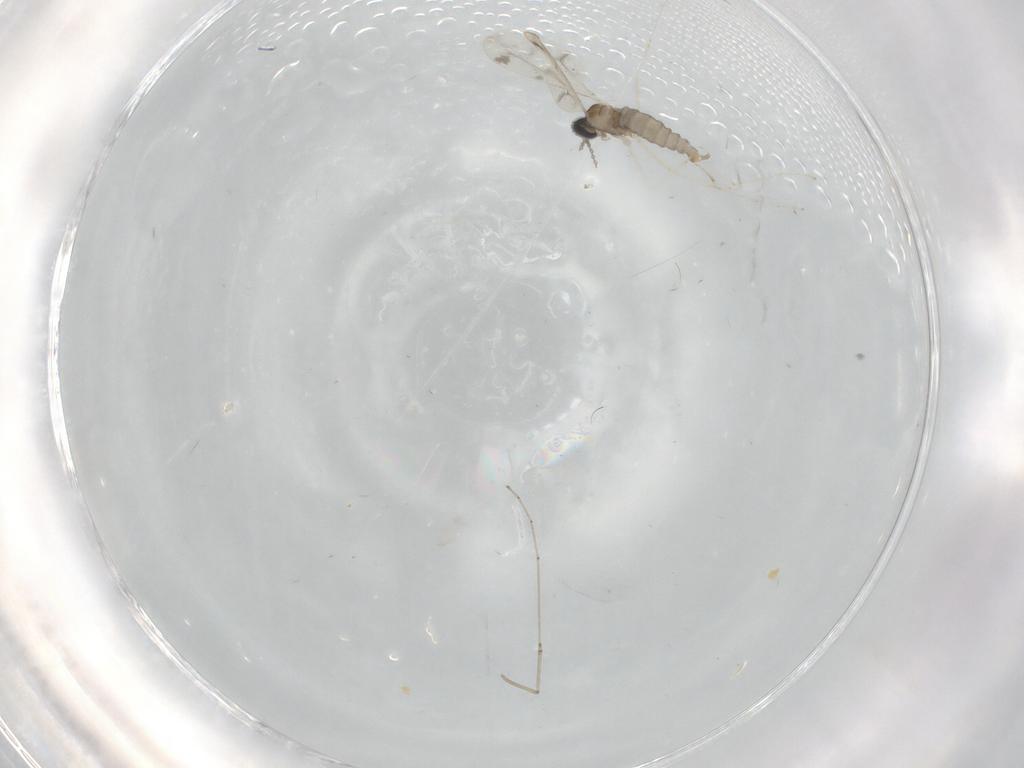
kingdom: Animalia
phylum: Arthropoda
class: Insecta
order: Diptera
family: Cecidomyiidae
